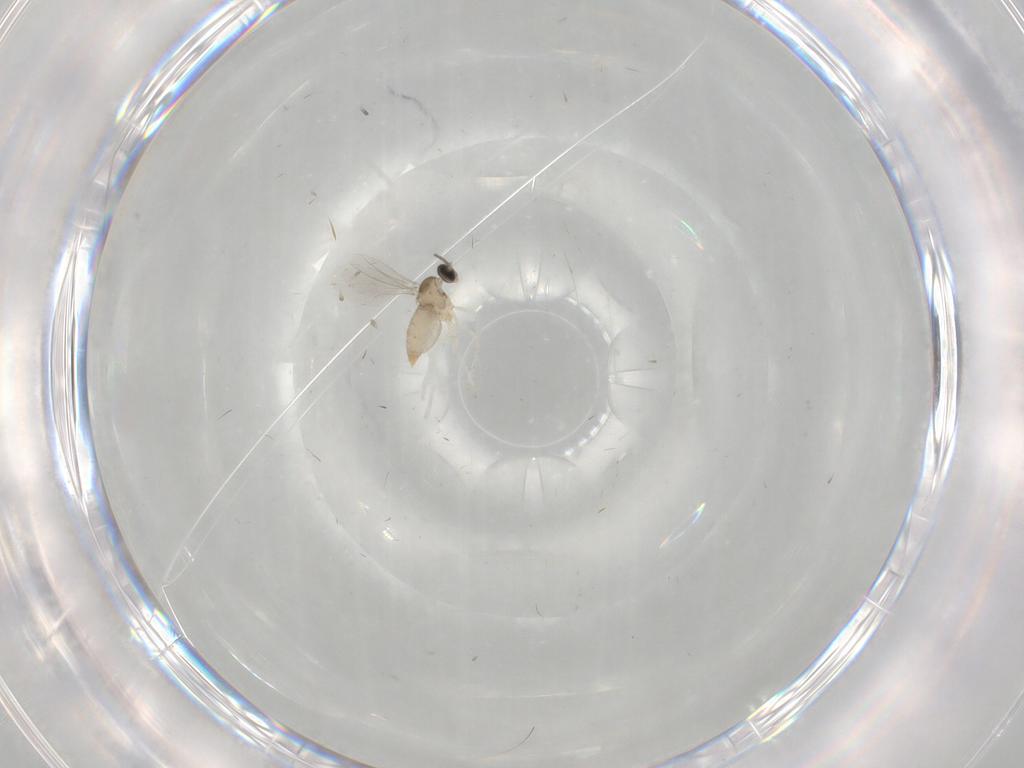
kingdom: Animalia
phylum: Arthropoda
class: Insecta
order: Diptera
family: Cecidomyiidae
